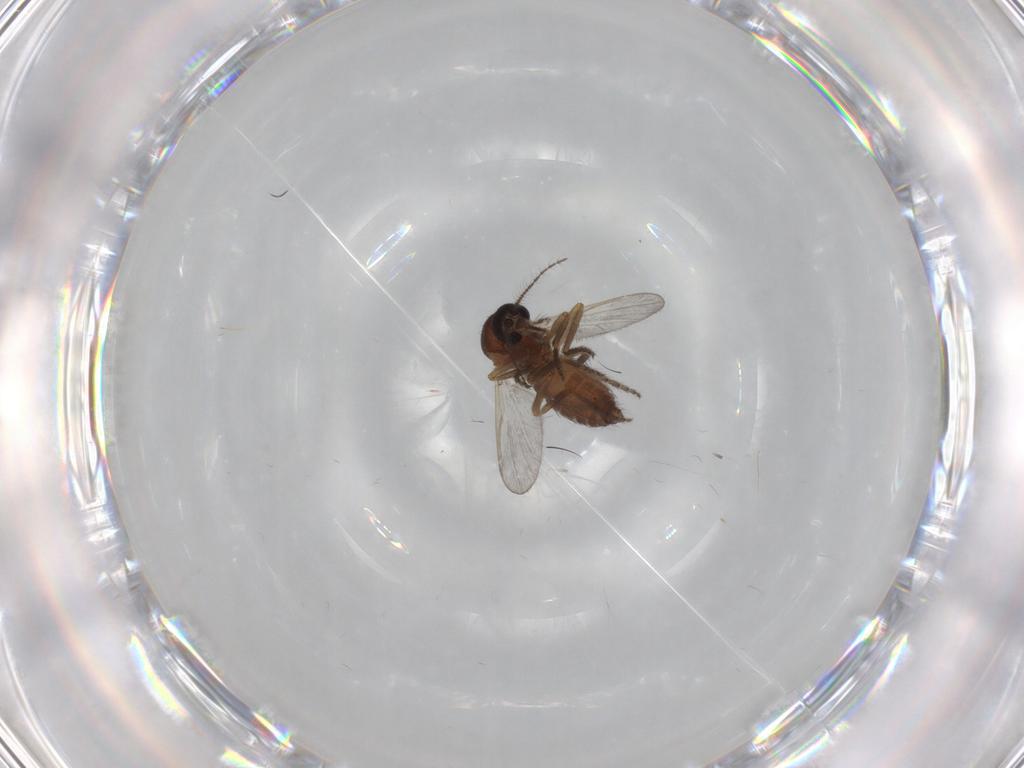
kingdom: Animalia
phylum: Arthropoda
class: Insecta
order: Diptera
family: Ceratopogonidae
